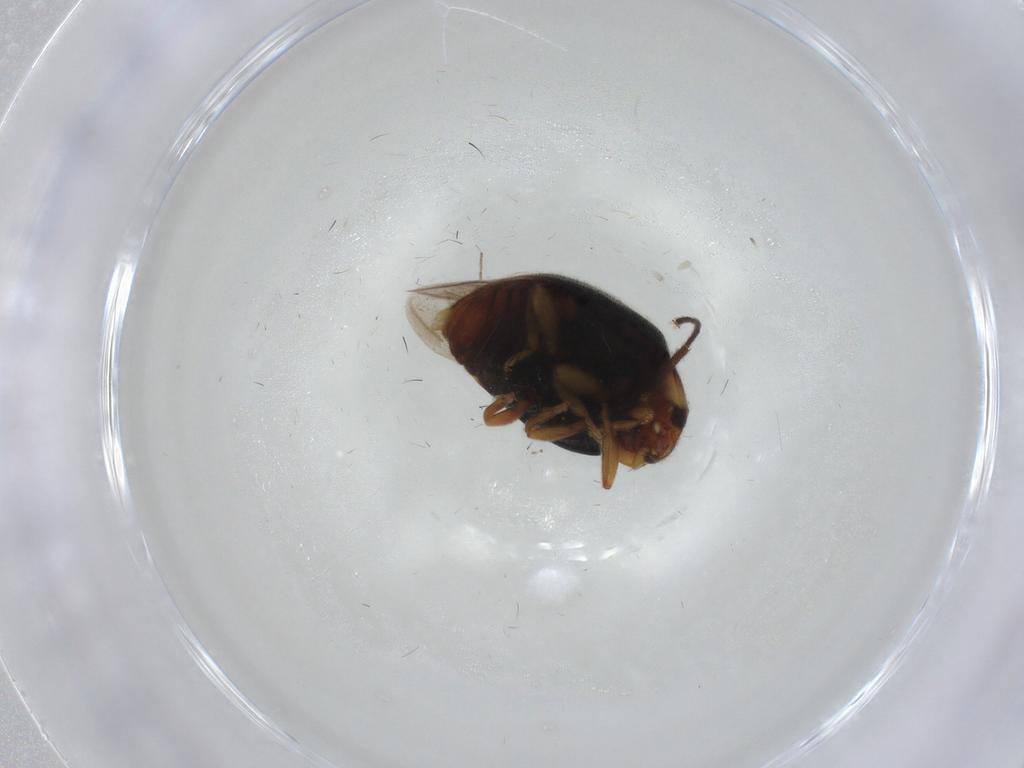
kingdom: Animalia
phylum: Arthropoda
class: Insecta
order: Coleoptera
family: Coccinellidae
